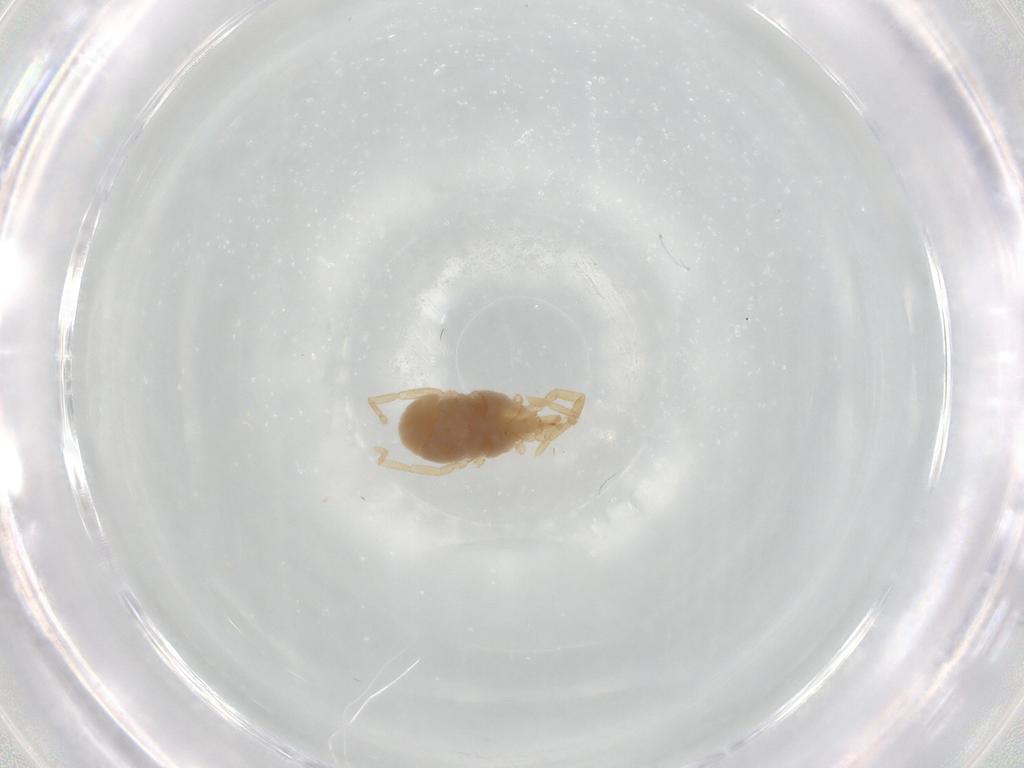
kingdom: Animalia
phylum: Arthropoda
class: Arachnida
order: Trombidiformes
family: Erythraeidae
